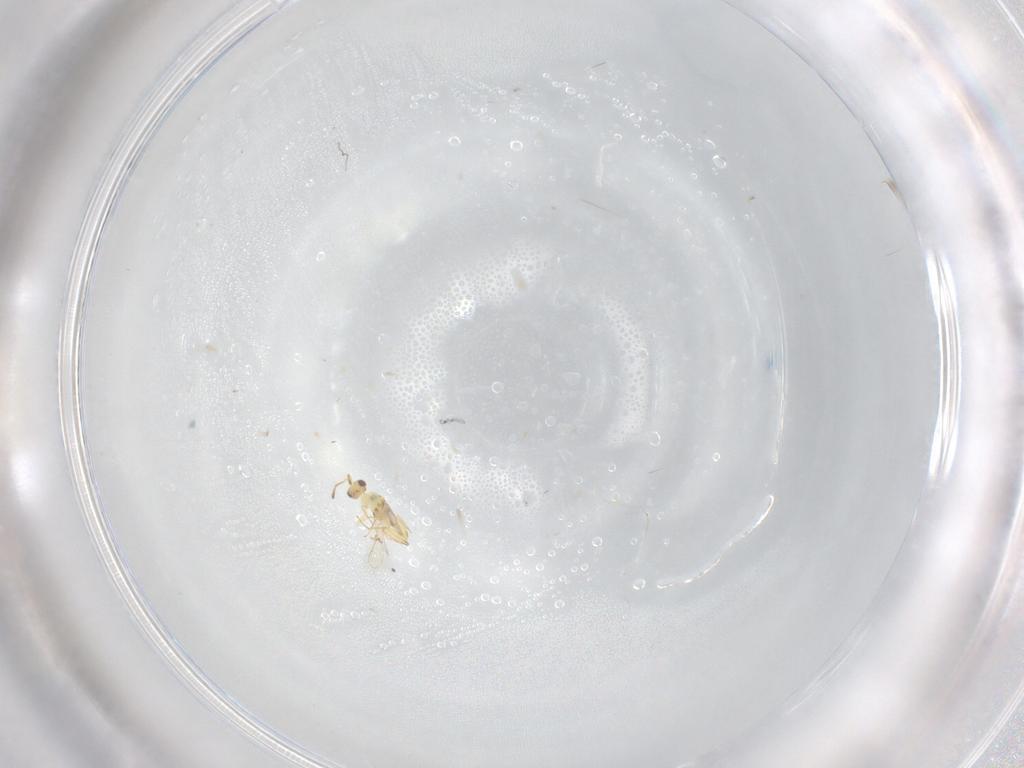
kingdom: Animalia
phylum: Arthropoda
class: Insecta
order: Hymenoptera
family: Mymaridae
